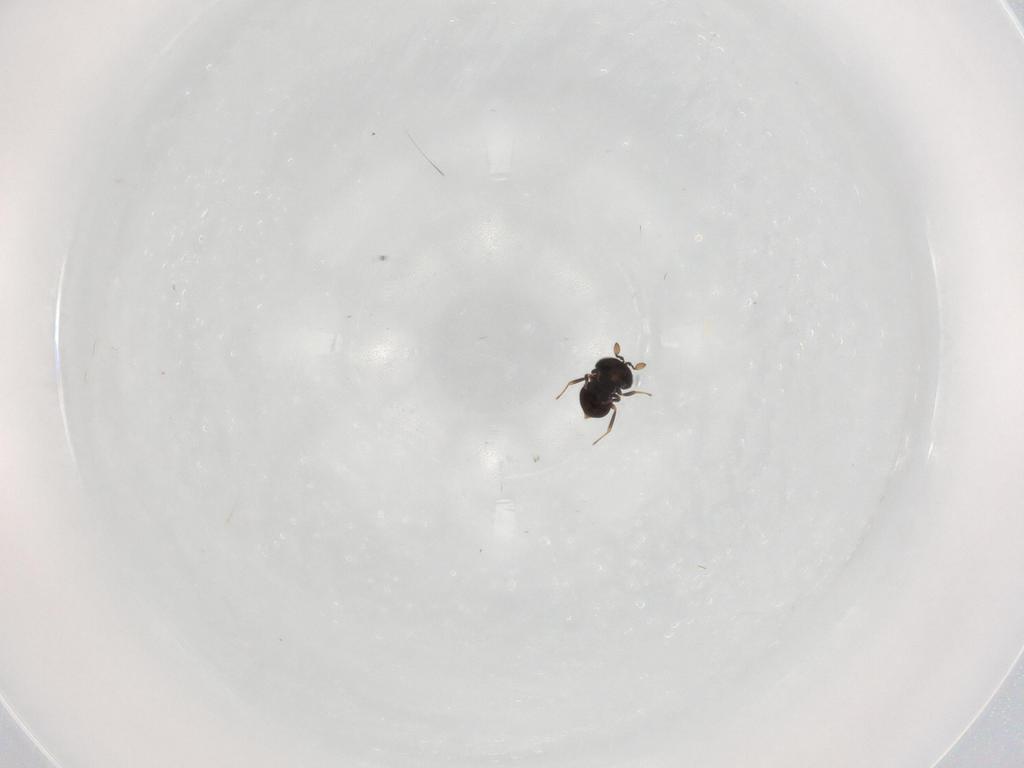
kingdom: Animalia
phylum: Arthropoda
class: Insecta
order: Hymenoptera
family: Scelionidae
